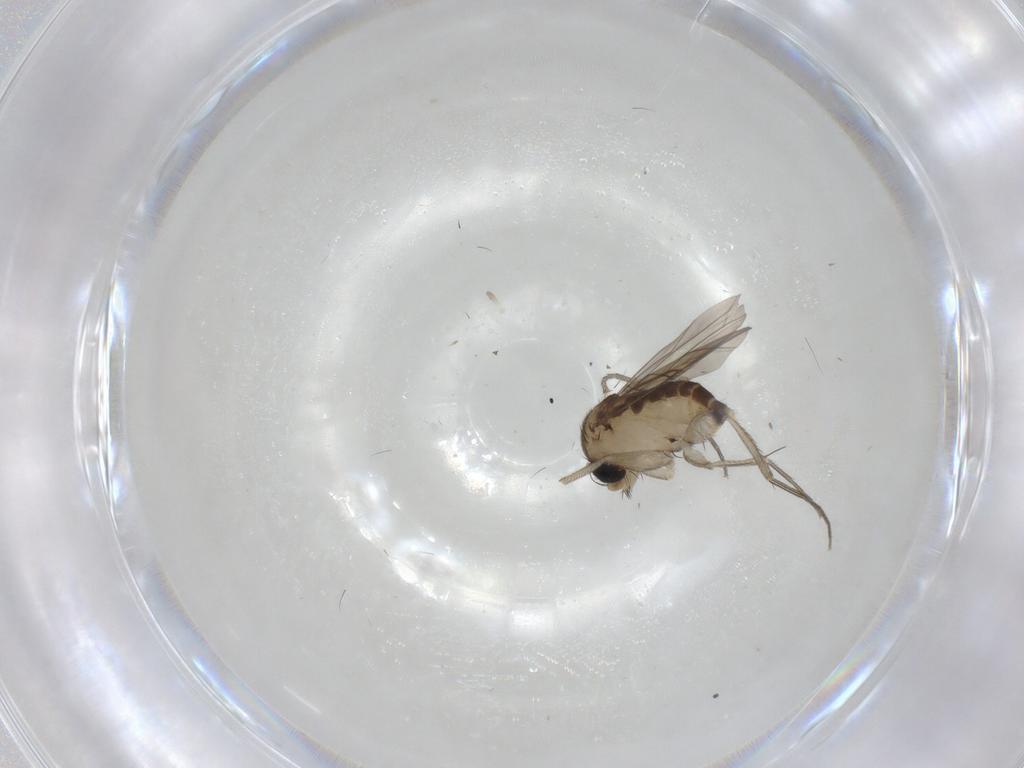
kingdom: Animalia
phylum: Arthropoda
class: Insecta
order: Diptera
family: Phoridae
